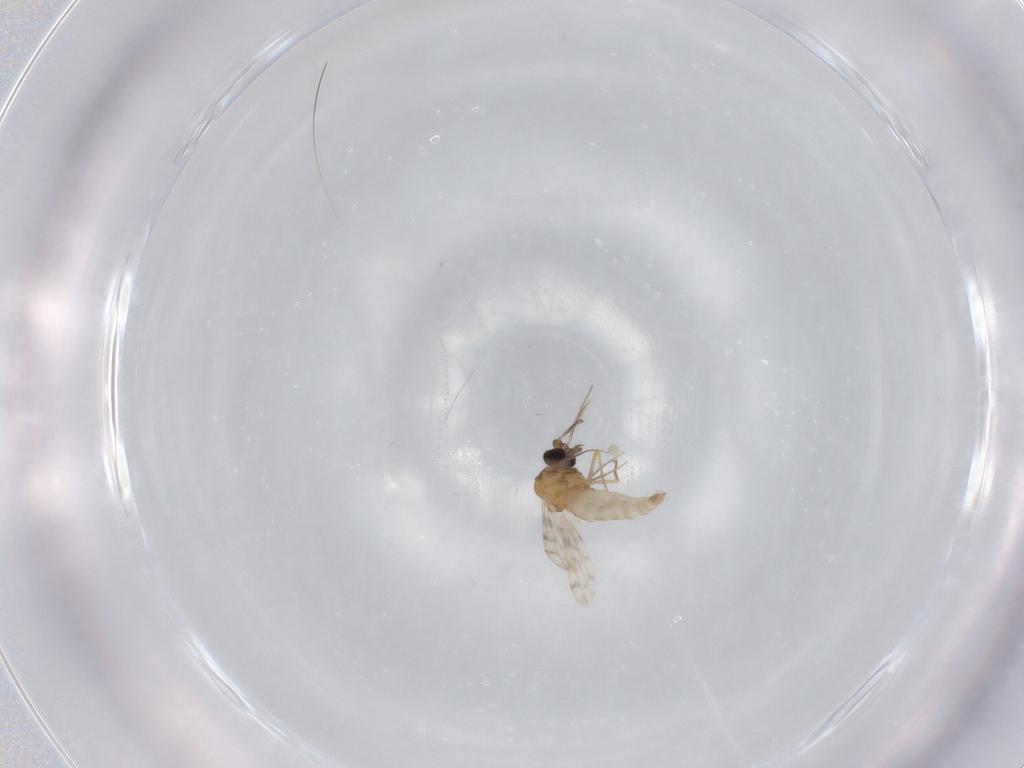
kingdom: Animalia
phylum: Arthropoda
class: Insecta
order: Diptera
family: Ceratopogonidae
